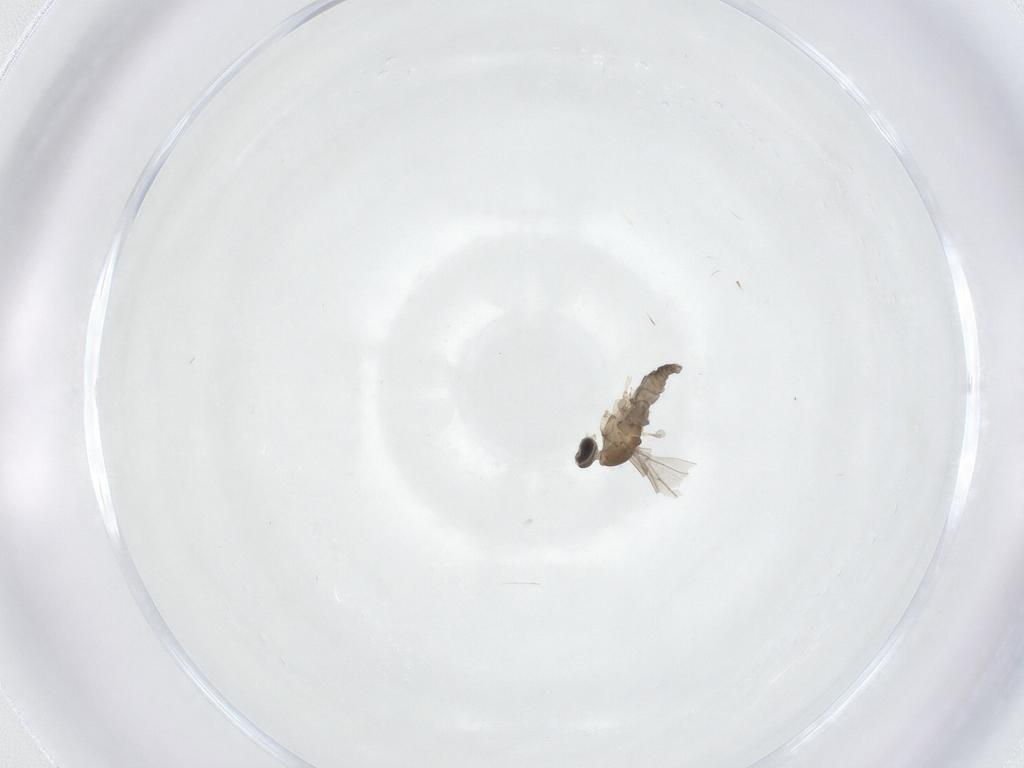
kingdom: Animalia
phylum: Arthropoda
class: Insecta
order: Diptera
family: Cecidomyiidae
